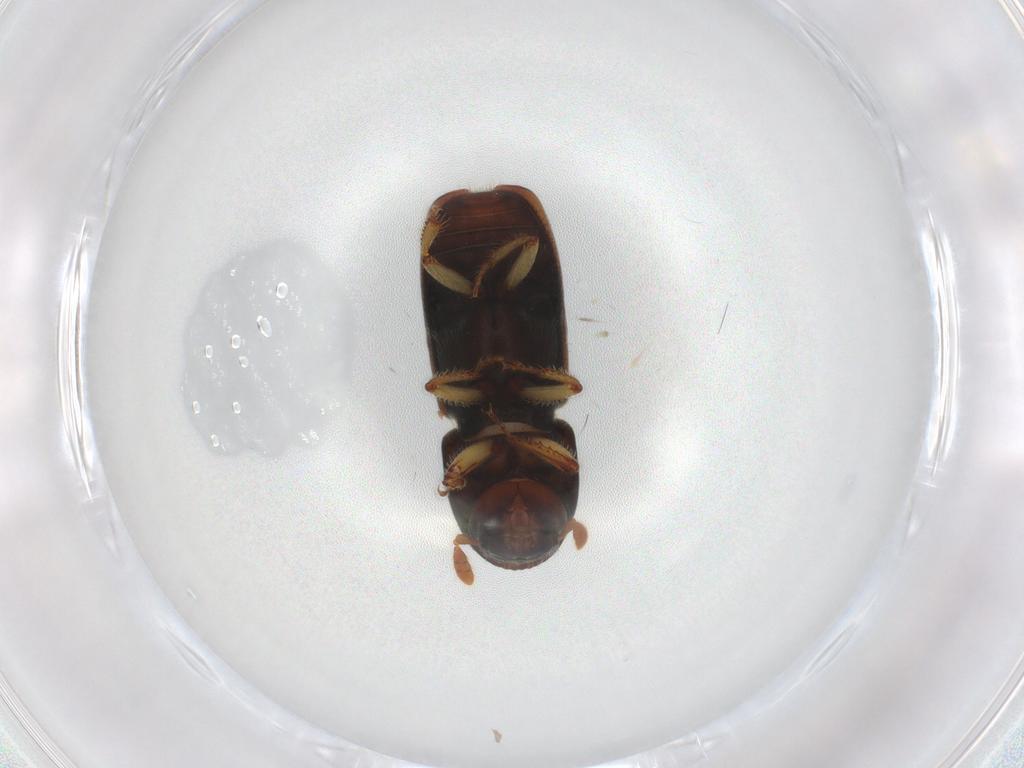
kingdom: Animalia
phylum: Arthropoda
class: Insecta
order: Coleoptera
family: Curculionidae
